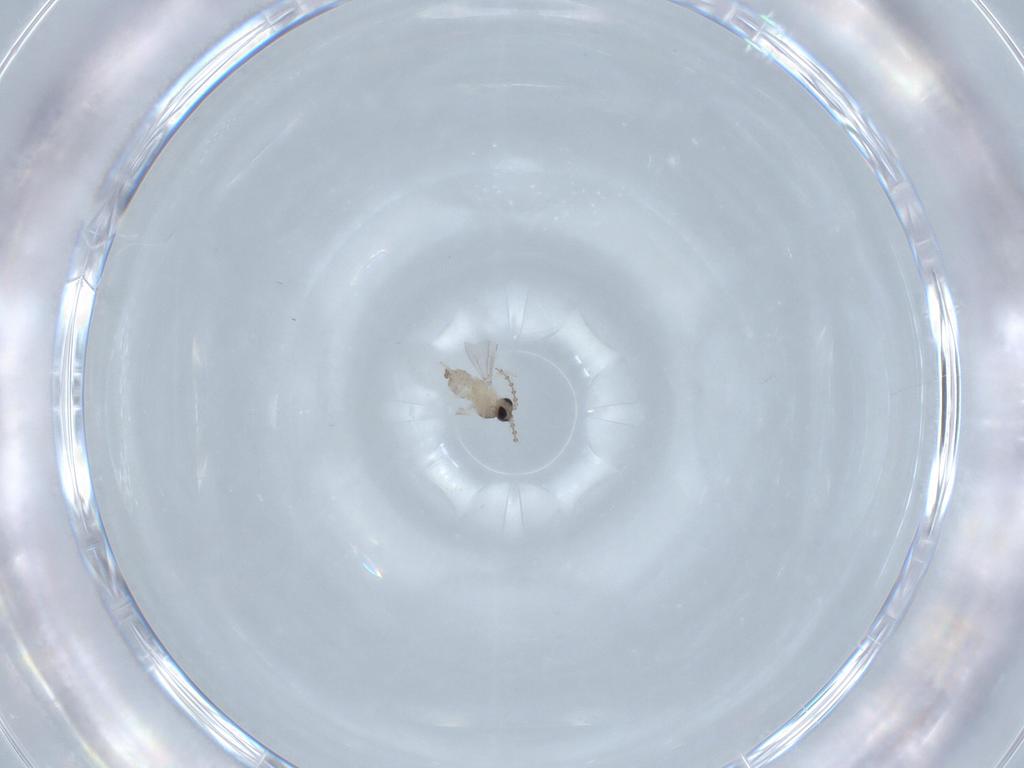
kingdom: Animalia
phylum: Arthropoda
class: Insecta
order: Diptera
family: Cecidomyiidae
